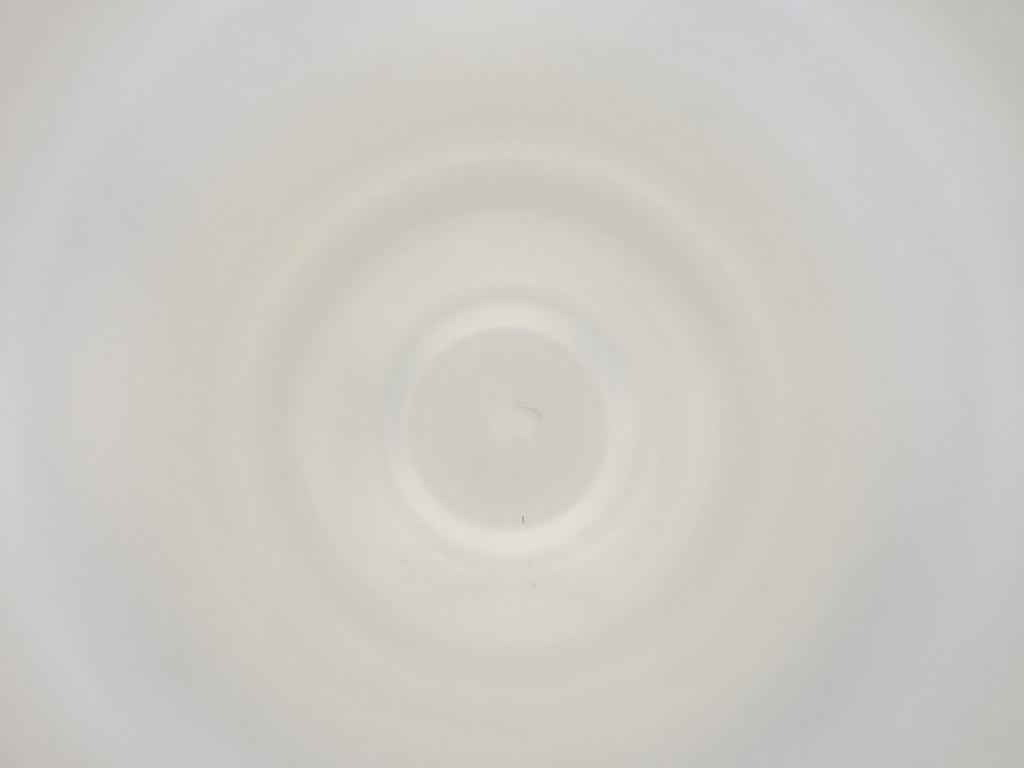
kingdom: Animalia
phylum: Arthropoda
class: Insecta
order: Diptera
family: Cecidomyiidae
